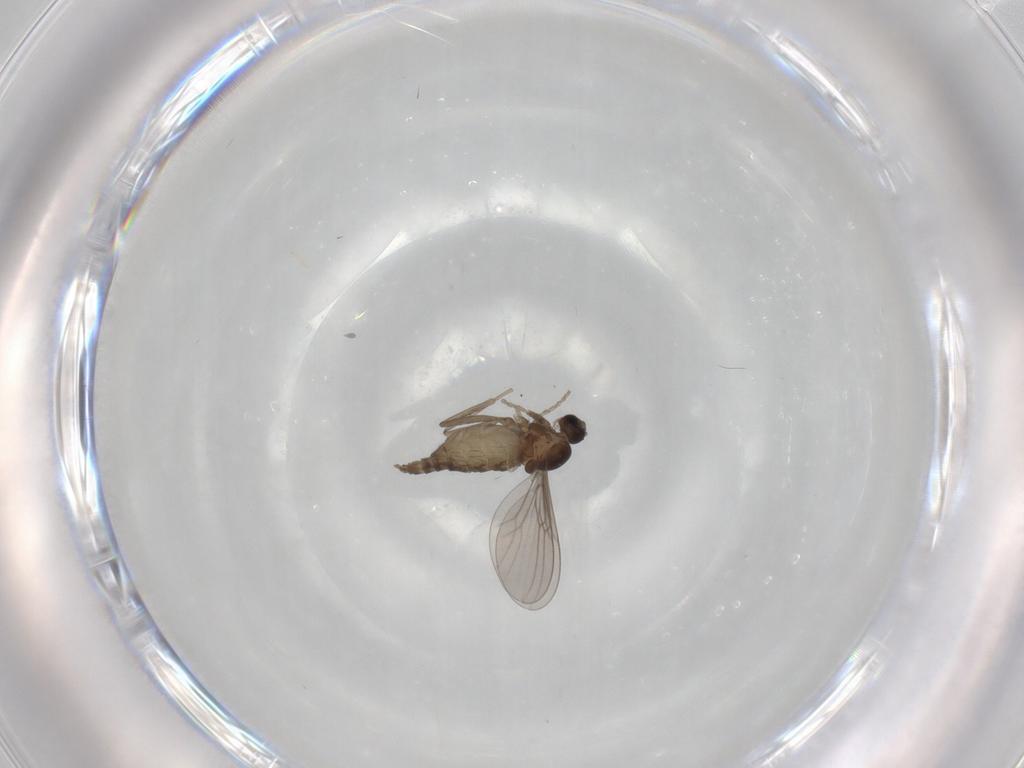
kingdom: Animalia
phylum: Arthropoda
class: Insecta
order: Diptera
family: Cecidomyiidae
